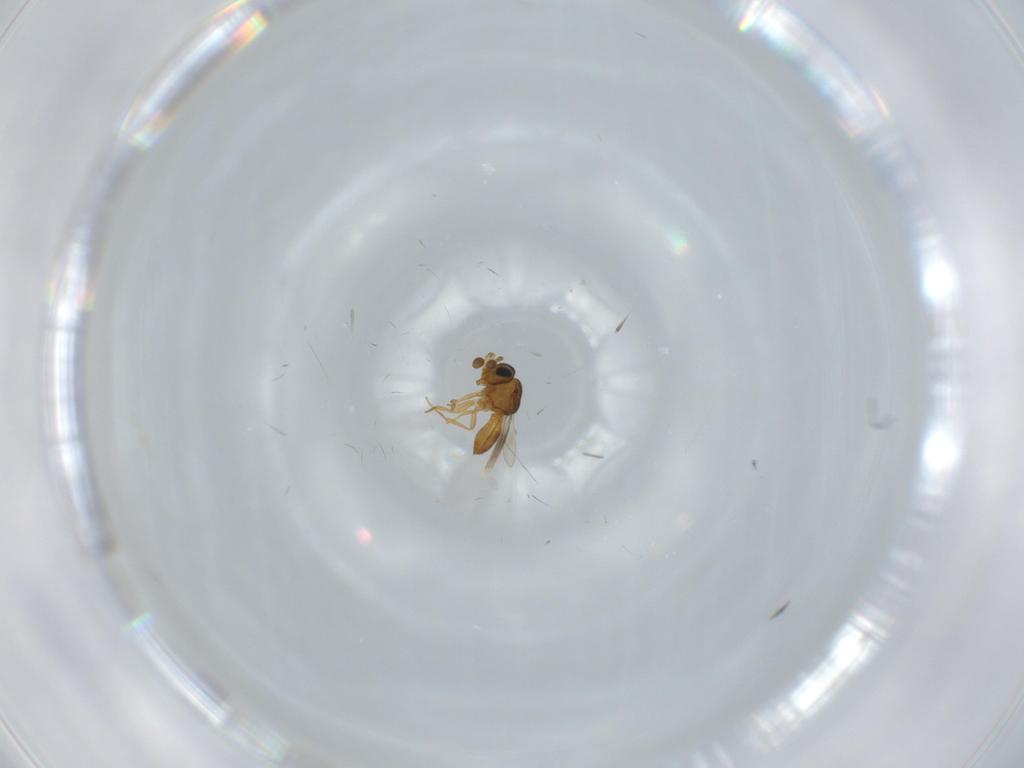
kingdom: Animalia
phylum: Arthropoda
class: Insecta
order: Hymenoptera
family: Scelionidae
